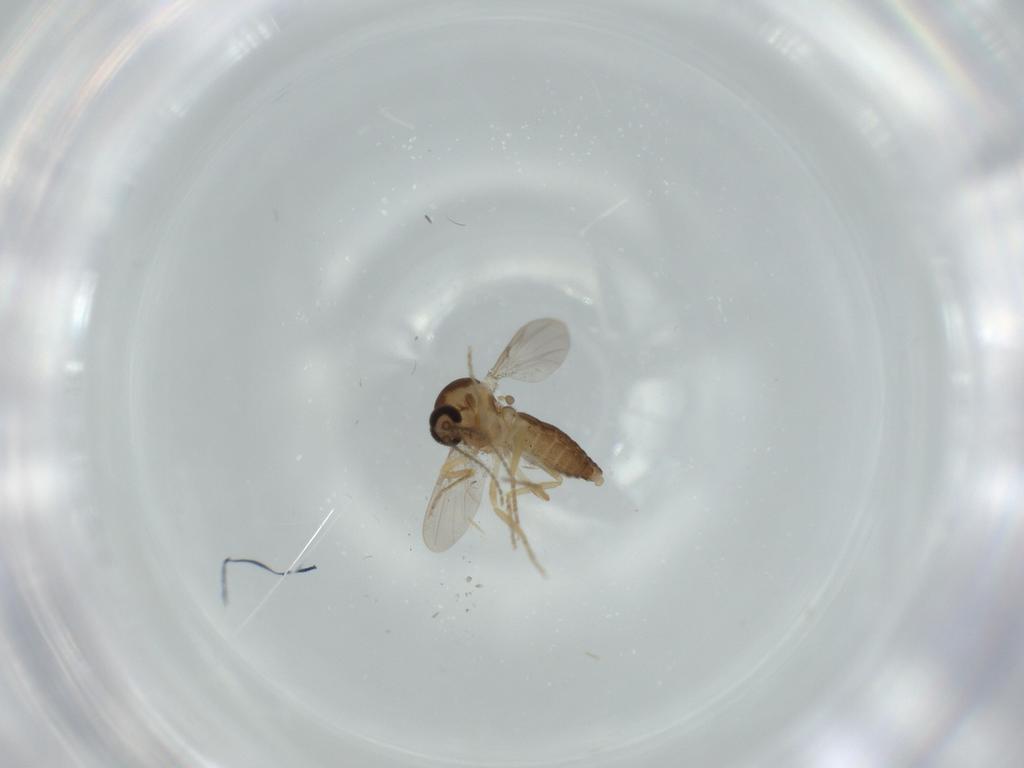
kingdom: Animalia
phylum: Arthropoda
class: Insecta
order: Diptera
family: Ceratopogonidae
